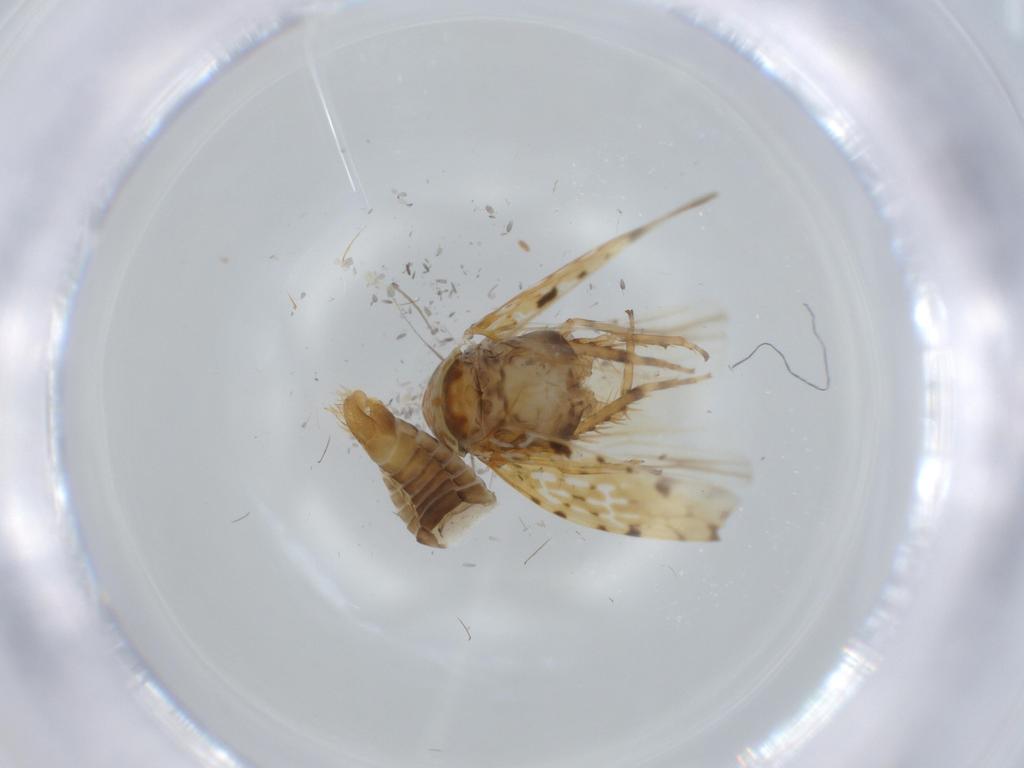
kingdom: Animalia
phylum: Arthropoda
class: Insecta
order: Hemiptera
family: Cicadellidae
